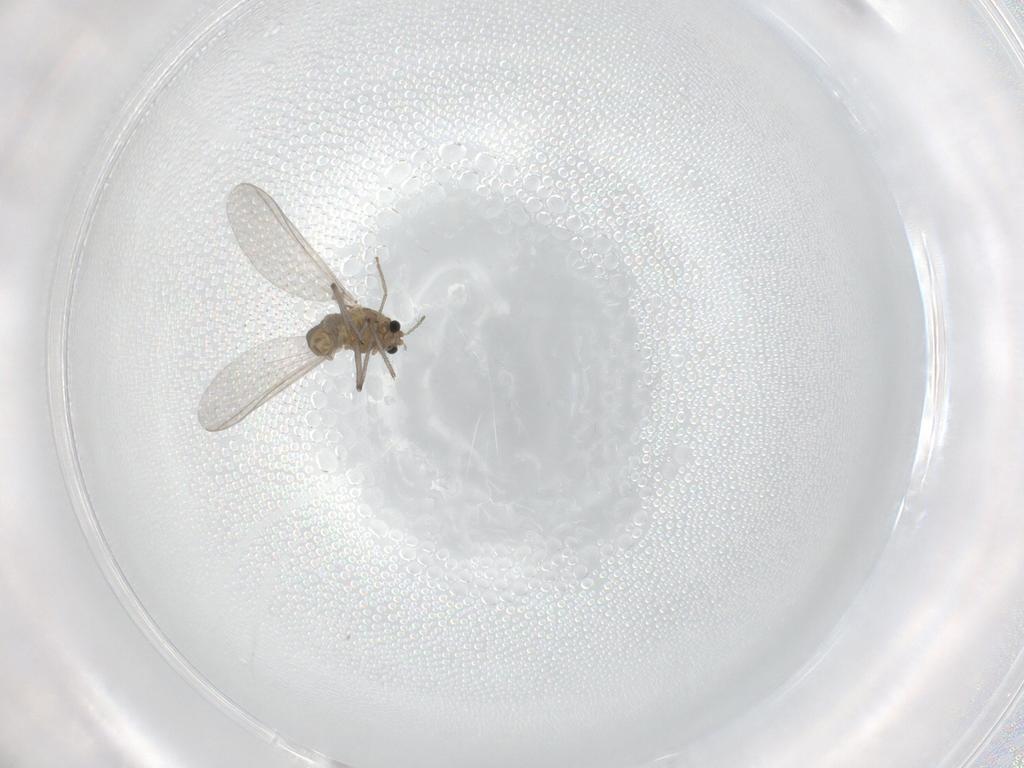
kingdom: Animalia
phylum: Arthropoda
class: Insecta
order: Diptera
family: Chironomidae
